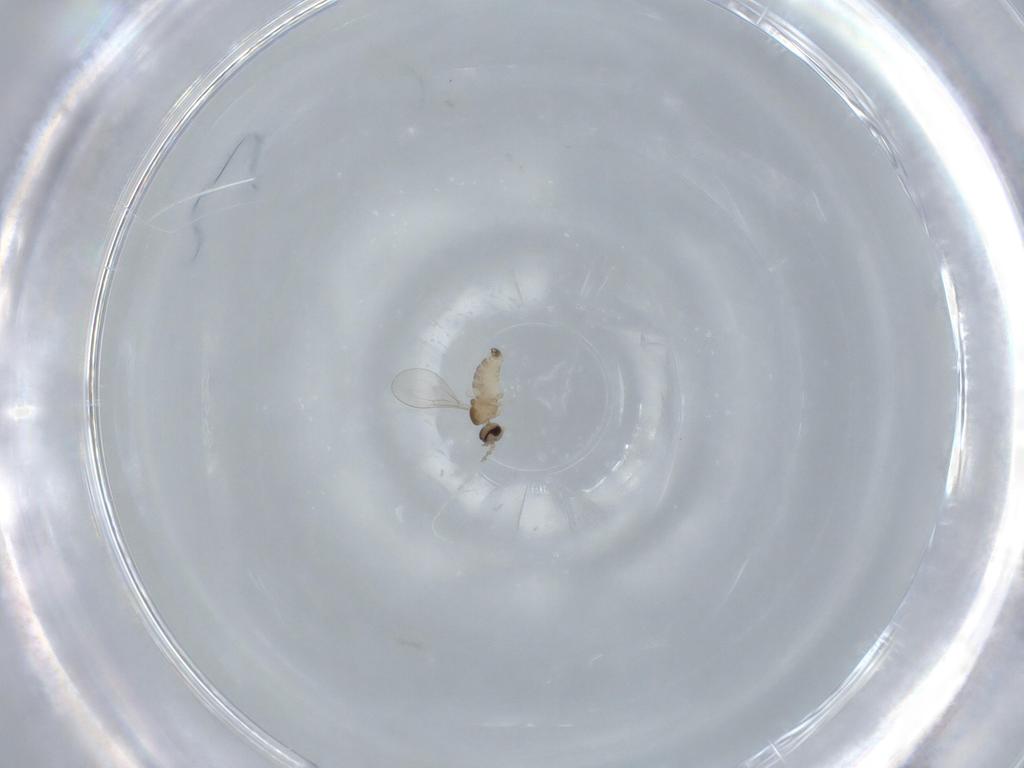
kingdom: Animalia
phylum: Arthropoda
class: Insecta
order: Diptera
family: Cecidomyiidae
